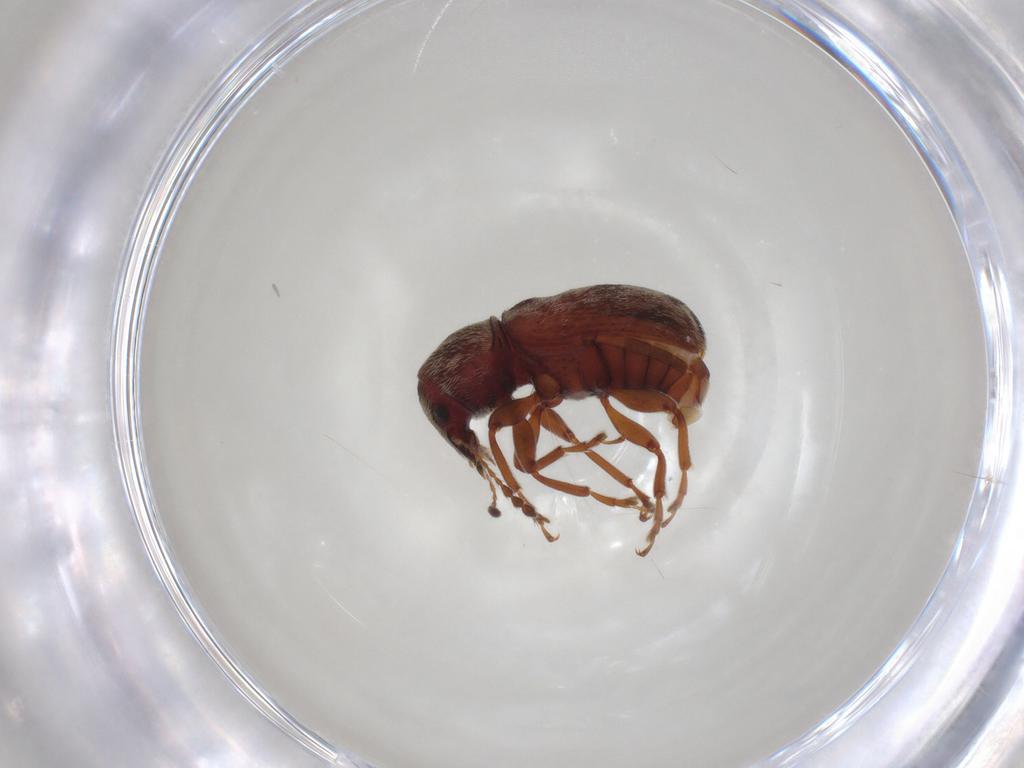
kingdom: Animalia
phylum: Arthropoda
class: Insecta
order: Coleoptera
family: Anthribidae
